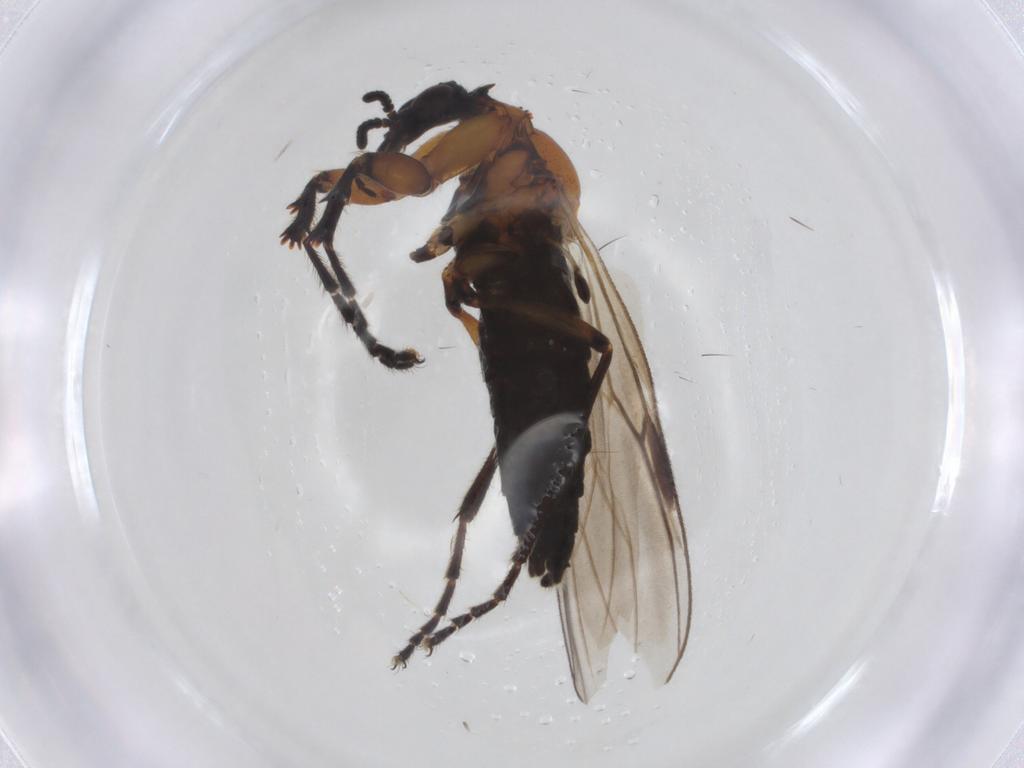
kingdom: Animalia
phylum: Arthropoda
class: Insecta
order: Diptera
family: Bibionidae
